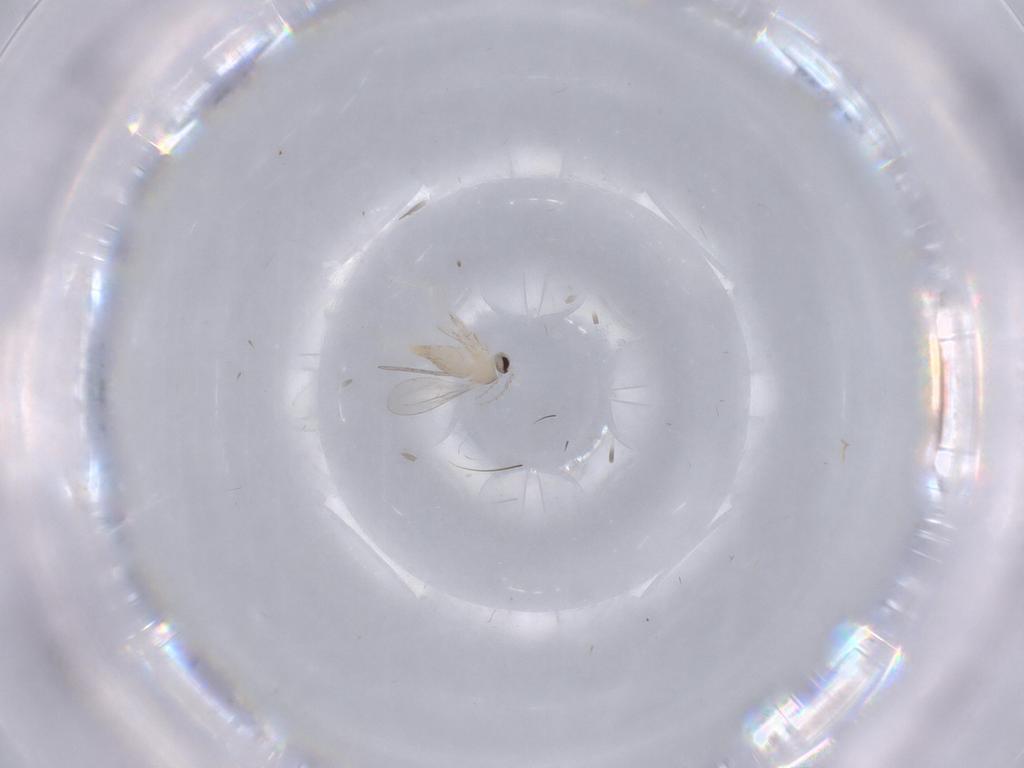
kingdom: Animalia
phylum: Arthropoda
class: Insecta
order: Diptera
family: Cecidomyiidae
